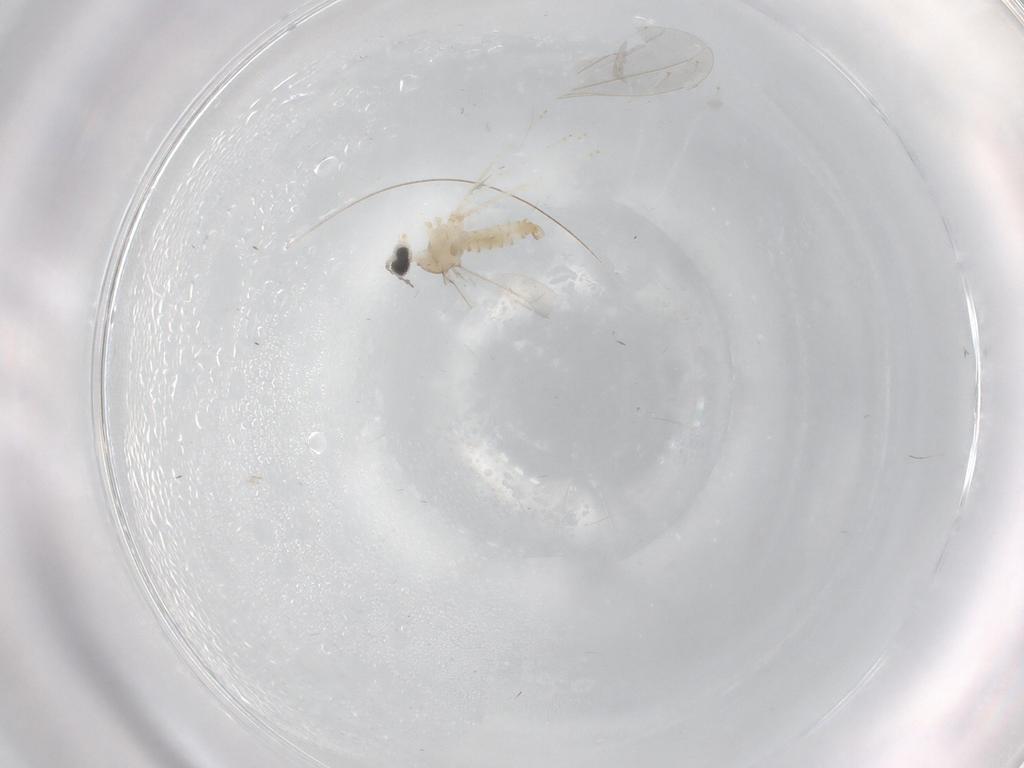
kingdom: Animalia
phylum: Arthropoda
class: Insecta
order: Diptera
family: Cecidomyiidae
